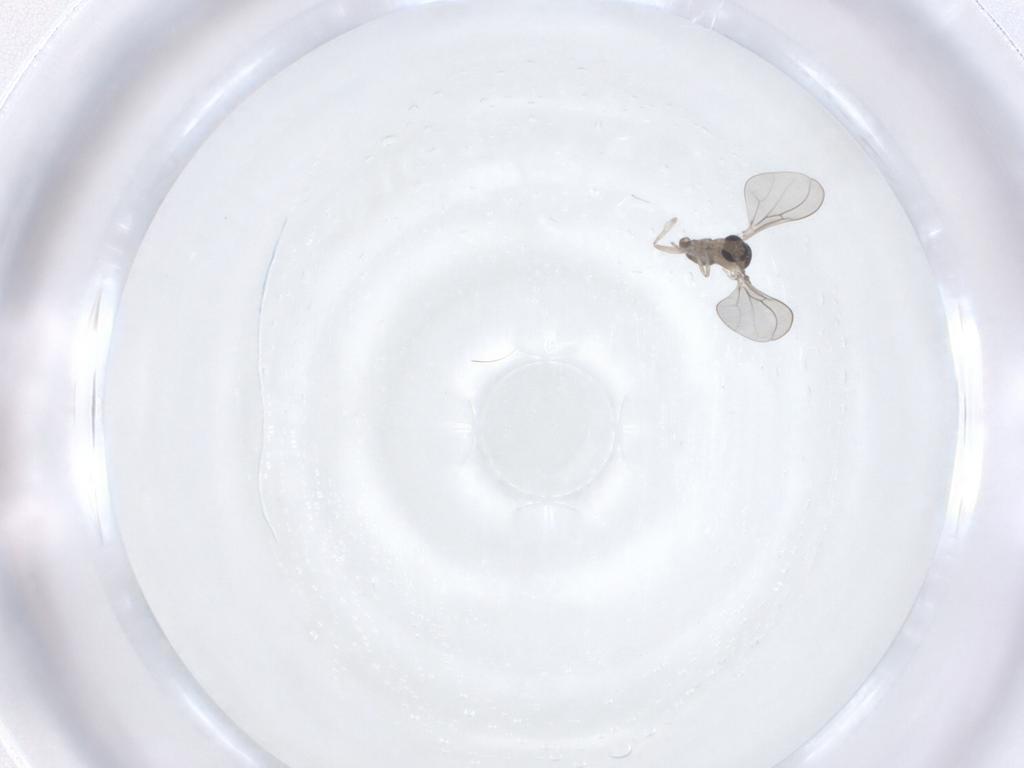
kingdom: Animalia
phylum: Arthropoda
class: Insecta
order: Diptera
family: Cecidomyiidae
